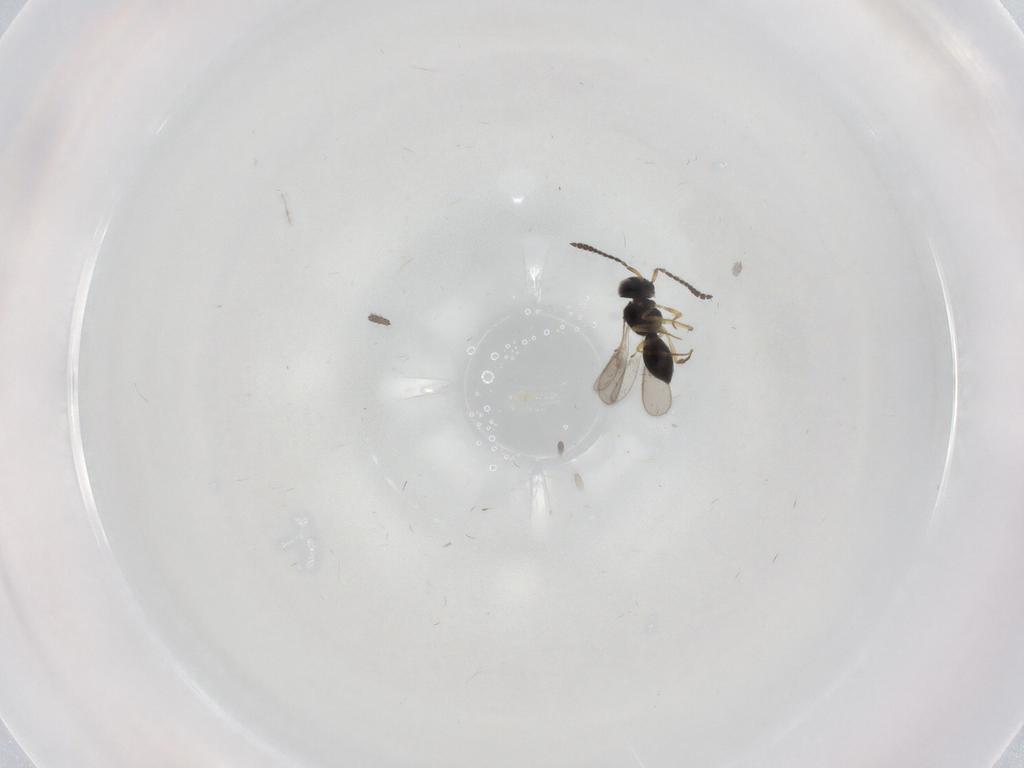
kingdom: Animalia
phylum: Arthropoda
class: Insecta
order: Hymenoptera
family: Scelionidae
